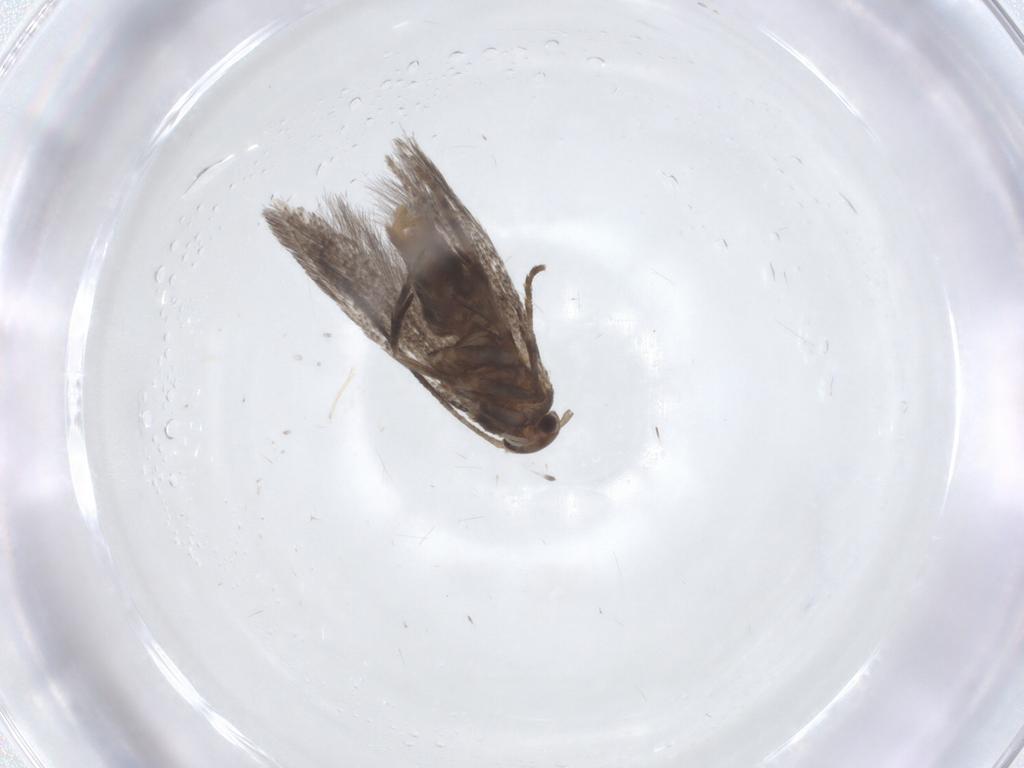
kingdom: Animalia
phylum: Arthropoda
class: Insecta
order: Lepidoptera
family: Elachistidae
